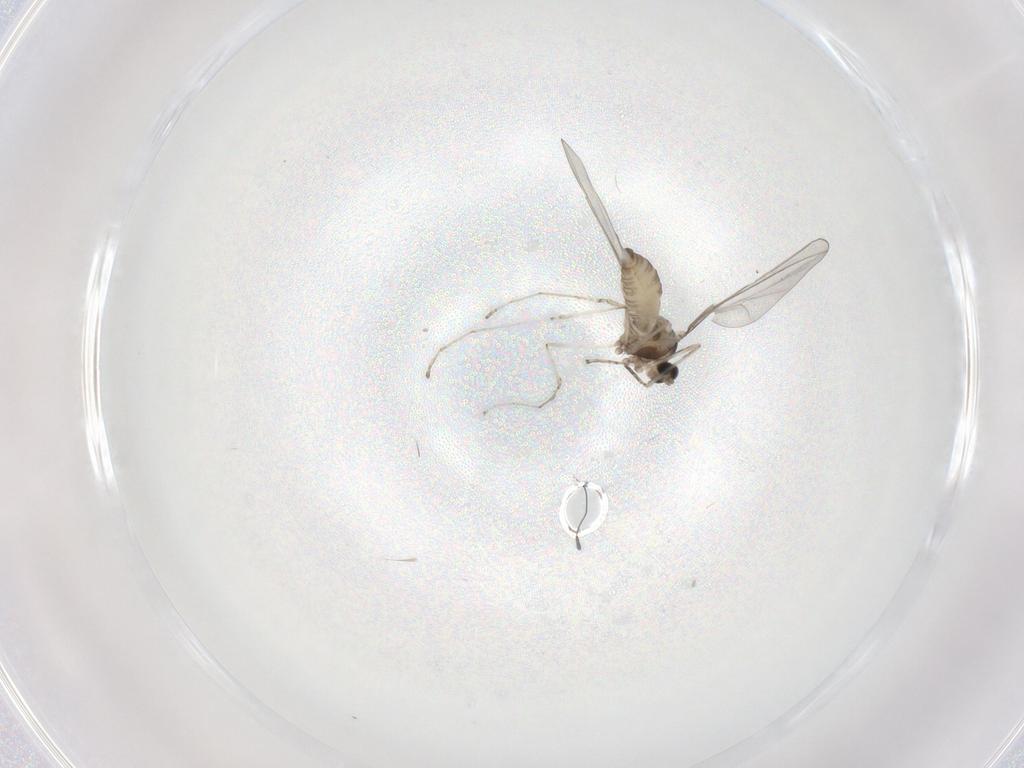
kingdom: Animalia
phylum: Arthropoda
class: Insecta
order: Diptera
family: Cecidomyiidae
